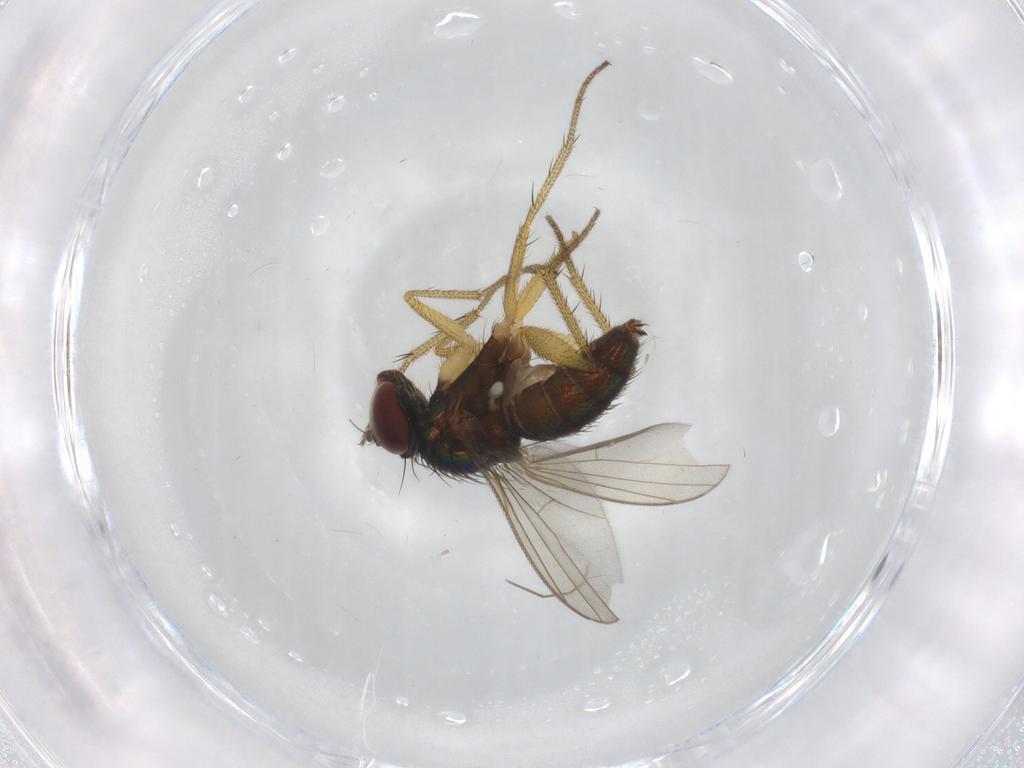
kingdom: Animalia
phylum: Arthropoda
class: Insecta
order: Diptera
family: Dolichopodidae
